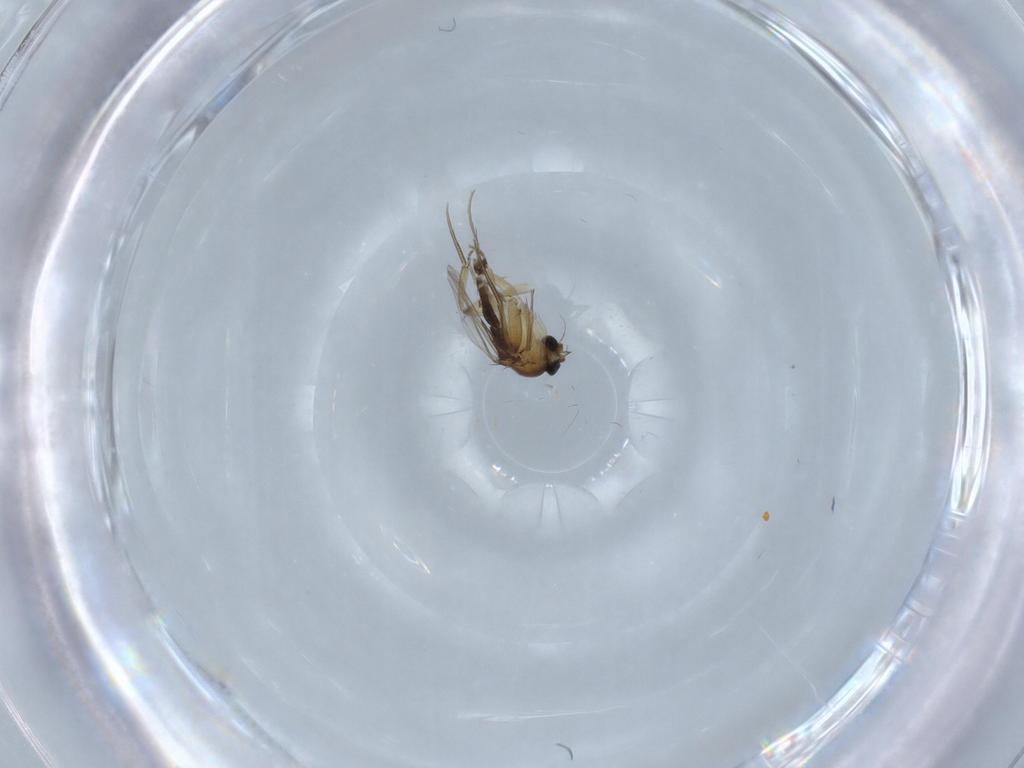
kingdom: Animalia
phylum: Arthropoda
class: Insecta
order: Diptera
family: Phoridae
